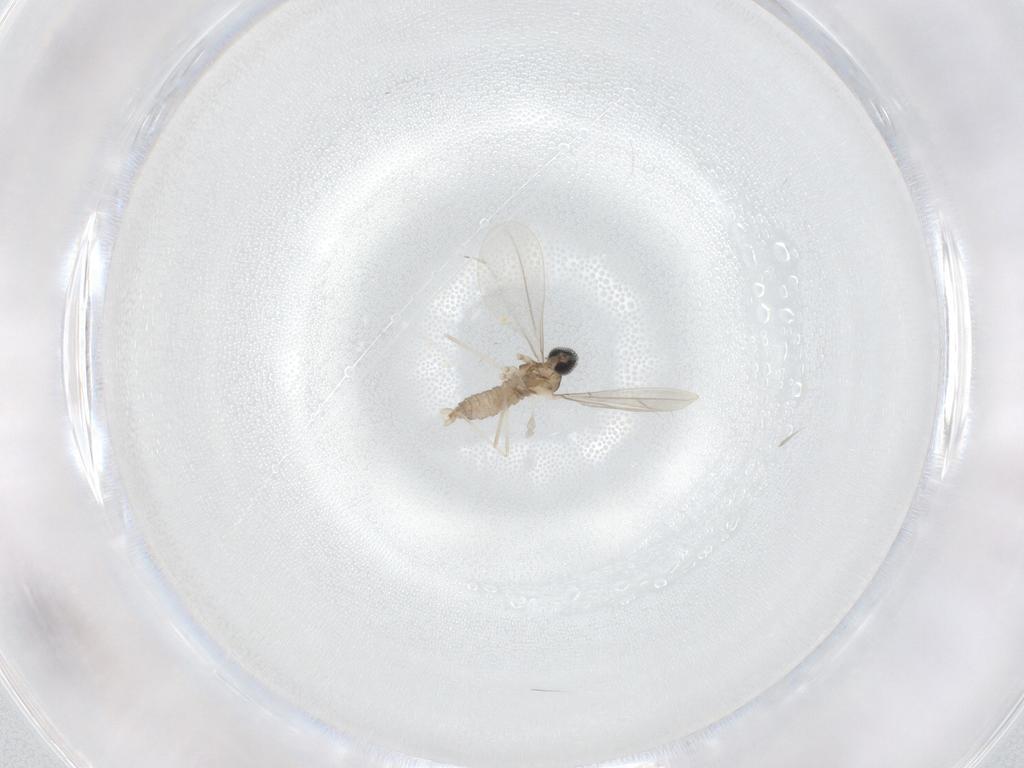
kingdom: Animalia
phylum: Arthropoda
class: Insecta
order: Diptera
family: Cecidomyiidae
